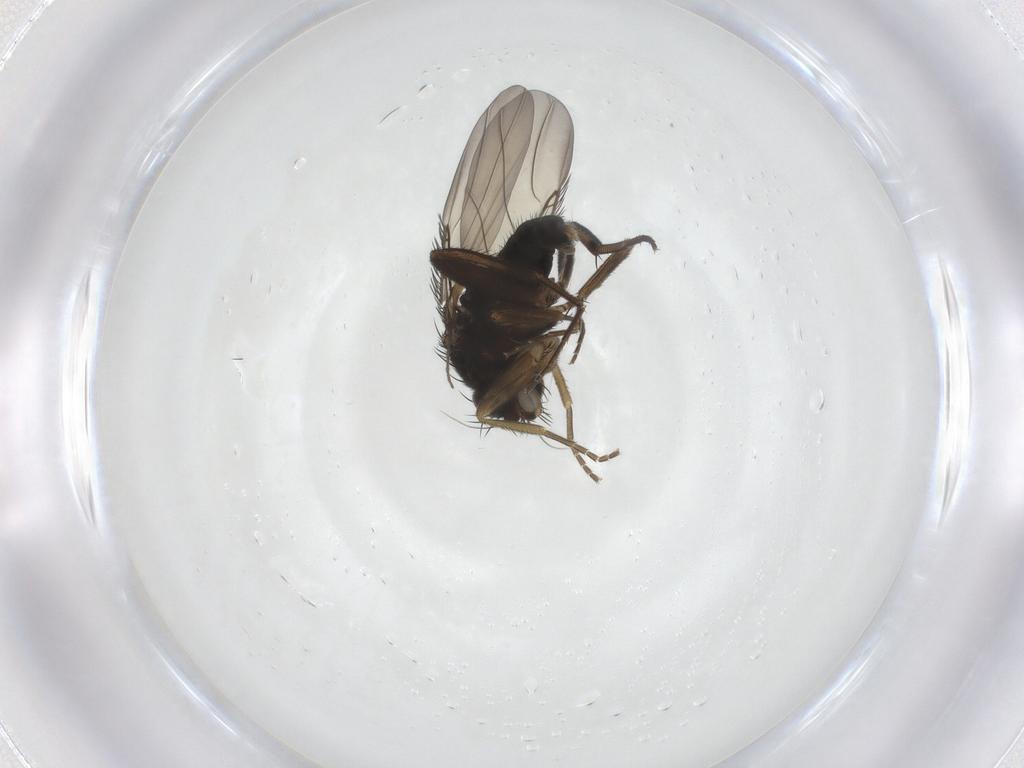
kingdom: Animalia
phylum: Arthropoda
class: Insecta
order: Diptera
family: Phoridae
